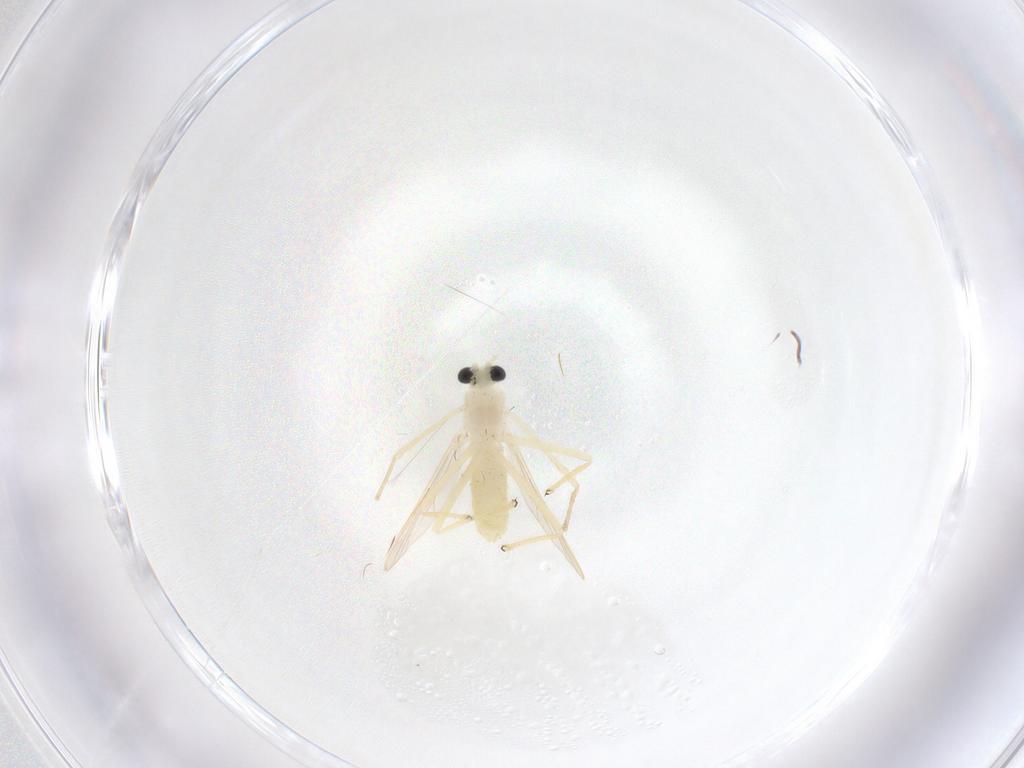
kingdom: Animalia
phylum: Arthropoda
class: Insecta
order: Diptera
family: Chironomidae
